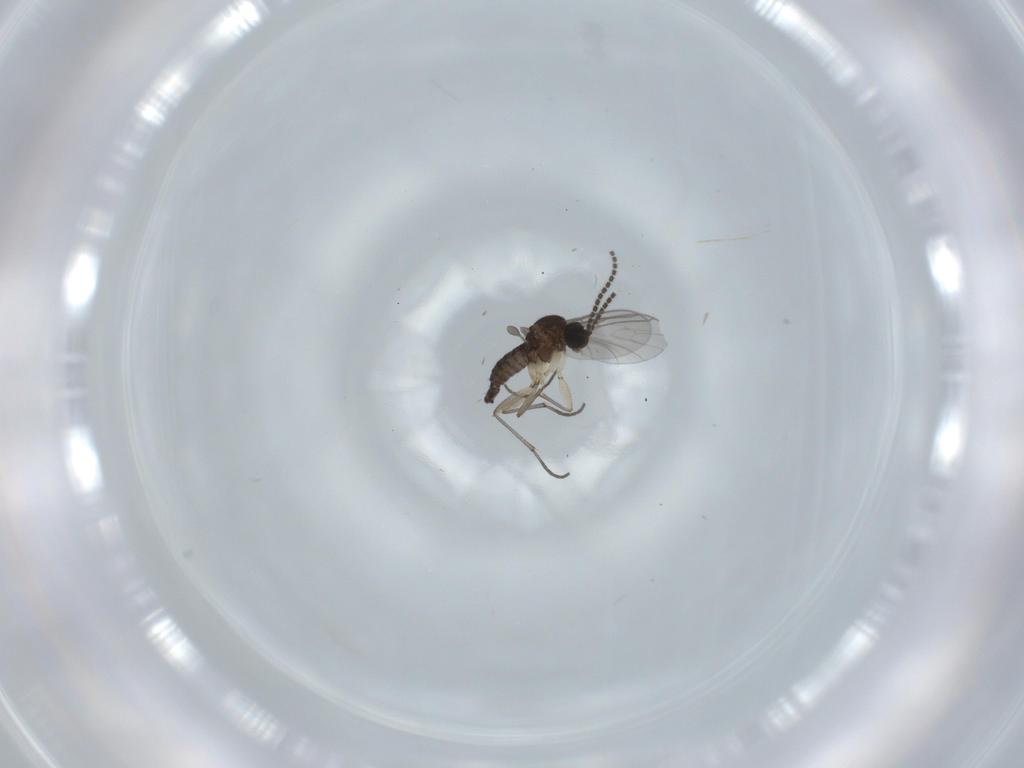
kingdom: Animalia
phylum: Arthropoda
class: Insecta
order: Diptera
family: Sciaridae
